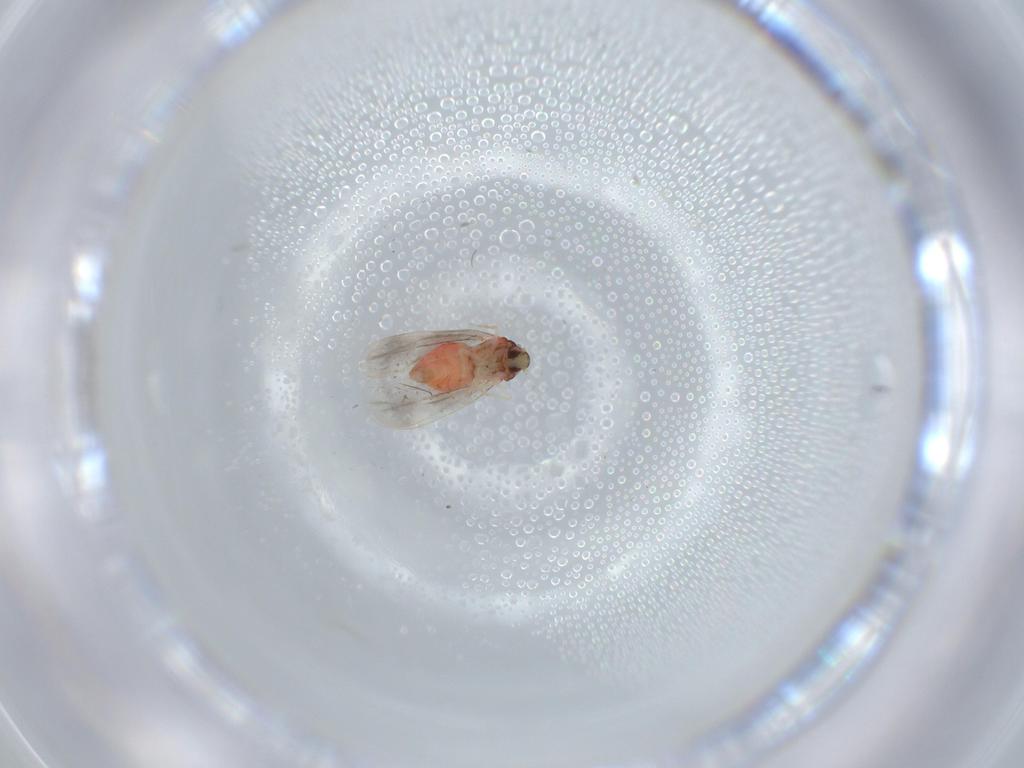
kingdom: Animalia
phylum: Arthropoda
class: Insecta
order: Hemiptera
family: Aleyrodidae
